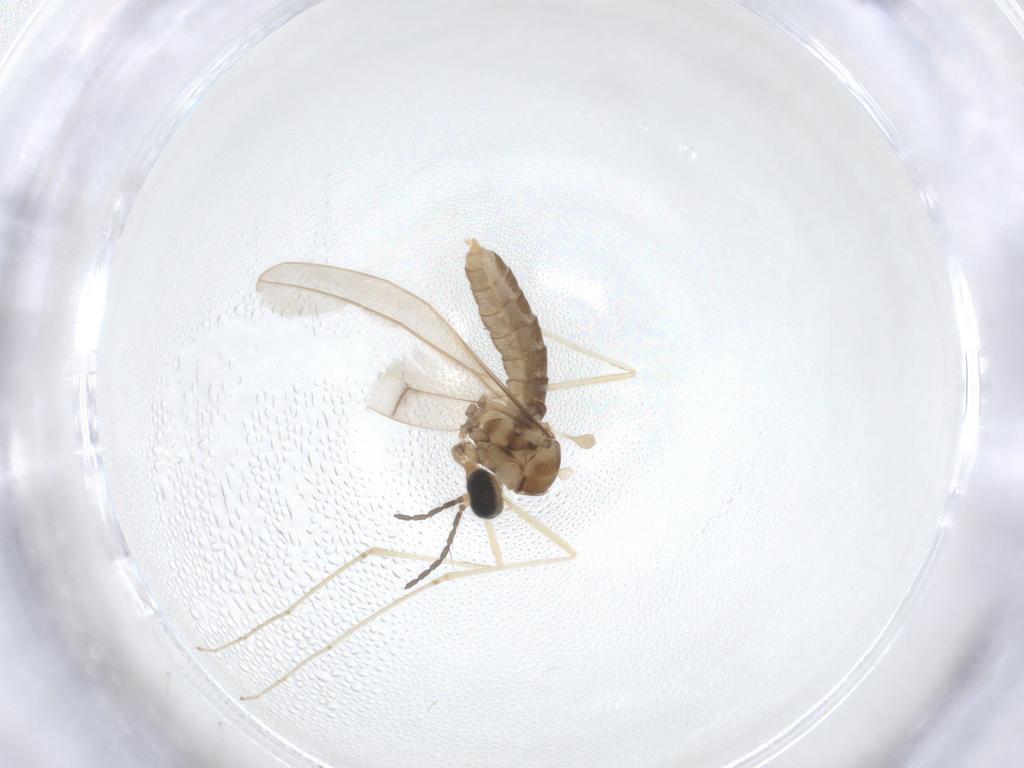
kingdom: Animalia
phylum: Arthropoda
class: Insecta
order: Diptera
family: Cecidomyiidae
